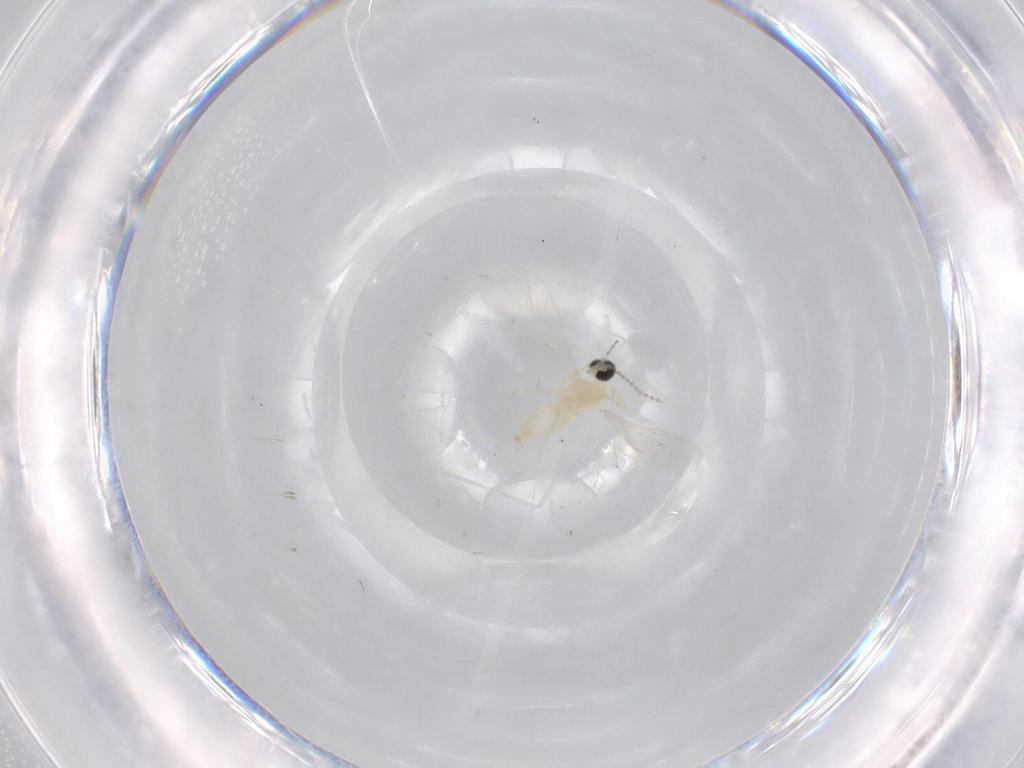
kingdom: Animalia
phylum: Arthropoda
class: Insecta
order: Diptera
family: Cecidomyiidae
